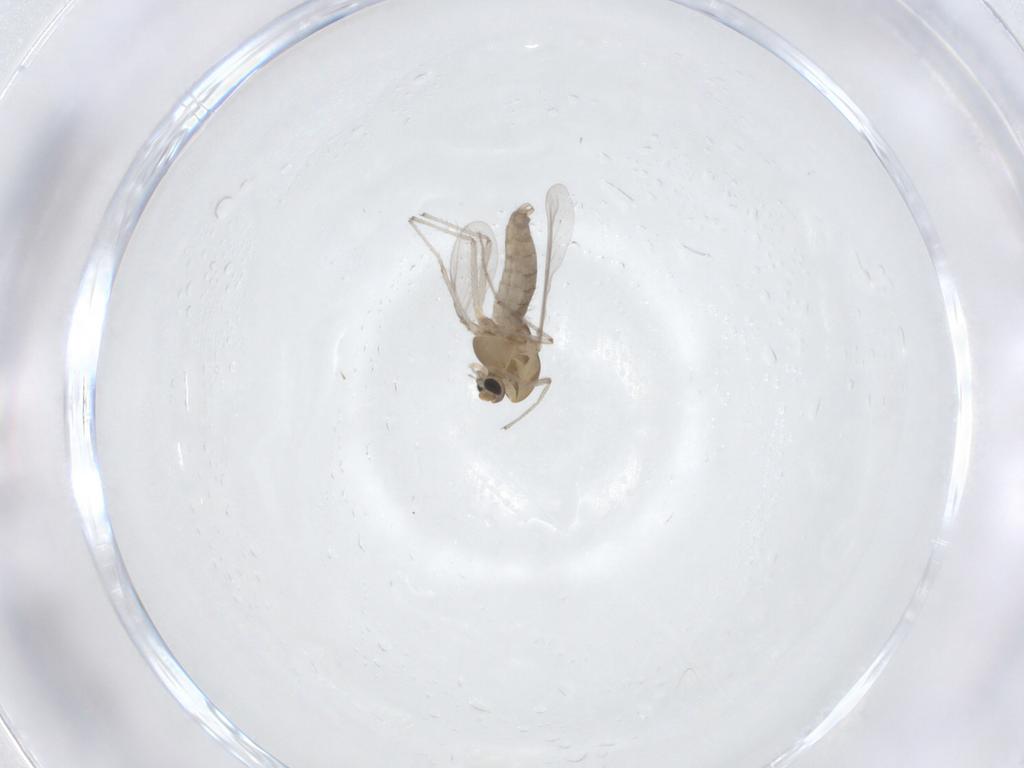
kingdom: Animalia
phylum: Arthropoda
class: Insecta
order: Diptera
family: Chironomidae
